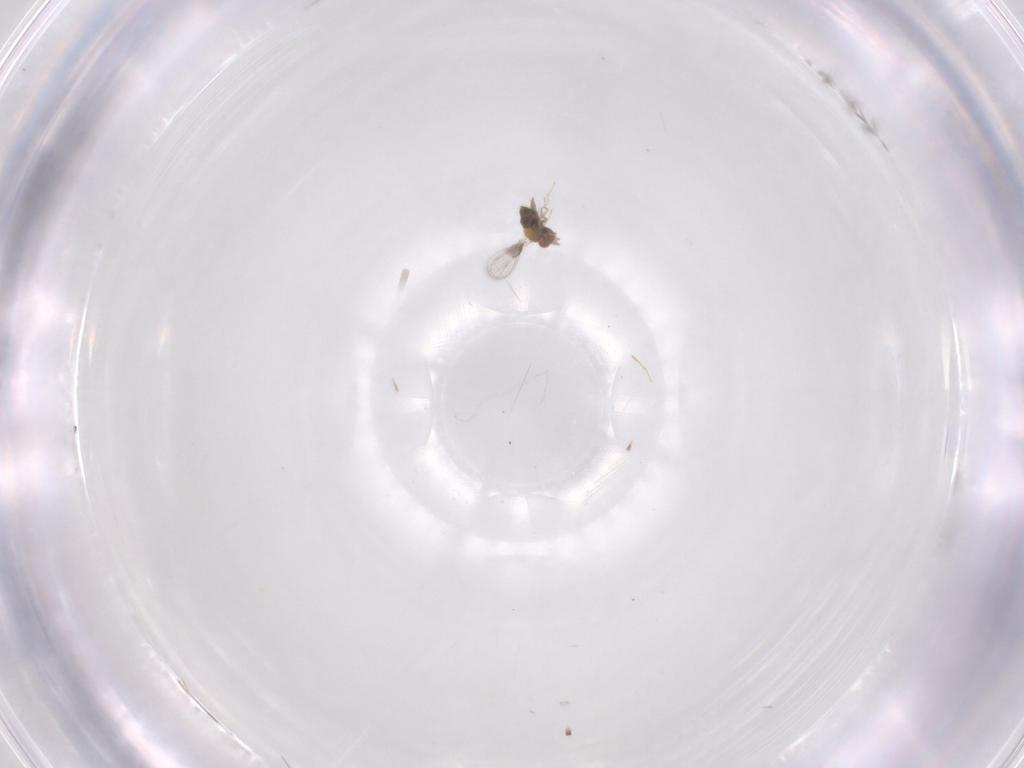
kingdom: Animalia
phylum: Arthropoda
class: Insecta
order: Hymenoptera
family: Trichogrammatidae
